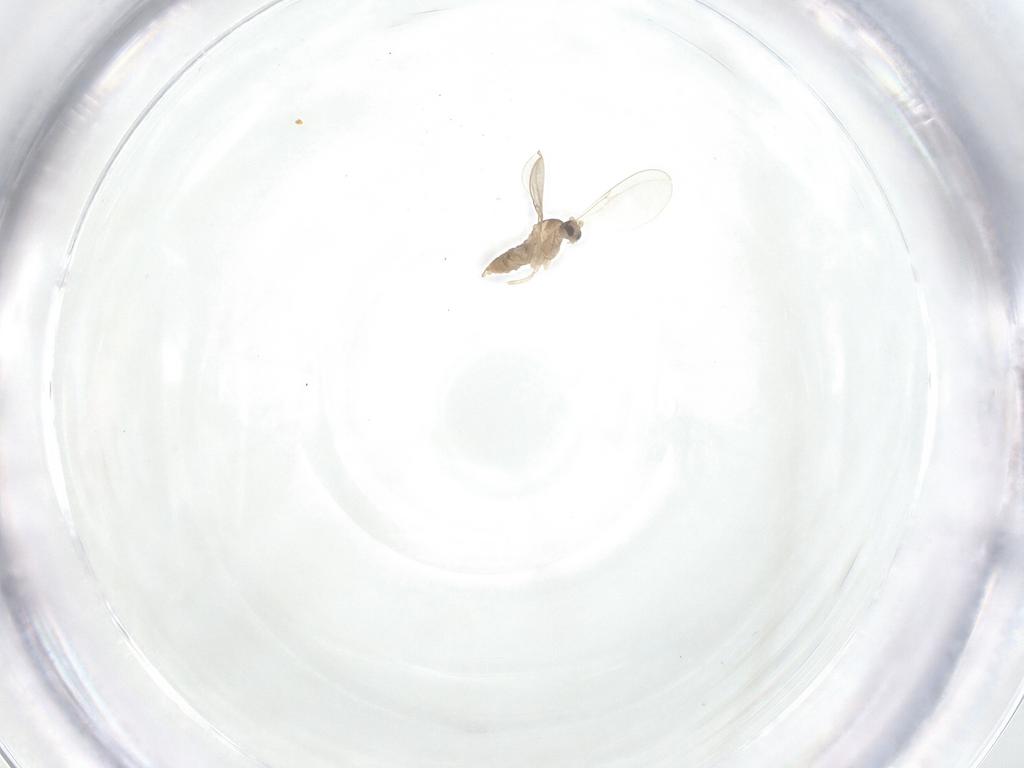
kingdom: Animalia
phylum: Arthropoda
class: Insecta
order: Diptera
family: Cecidomyiidae
